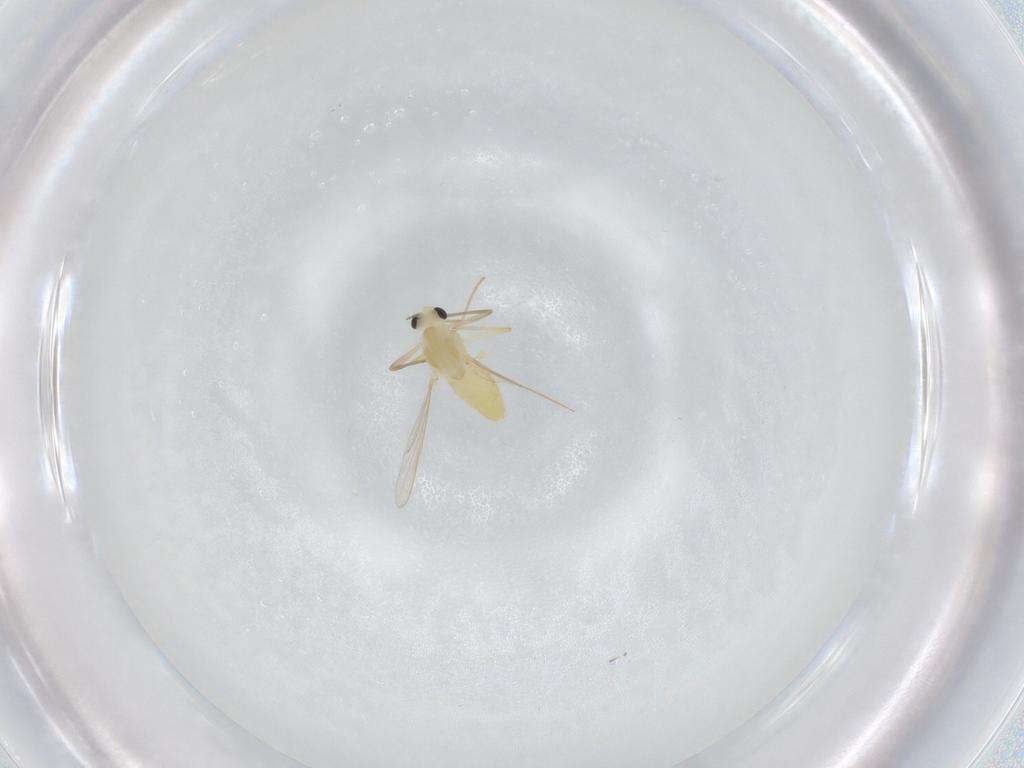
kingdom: Animalia
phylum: Arthropoda
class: Insecta
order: Diptera
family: Chironomidae
